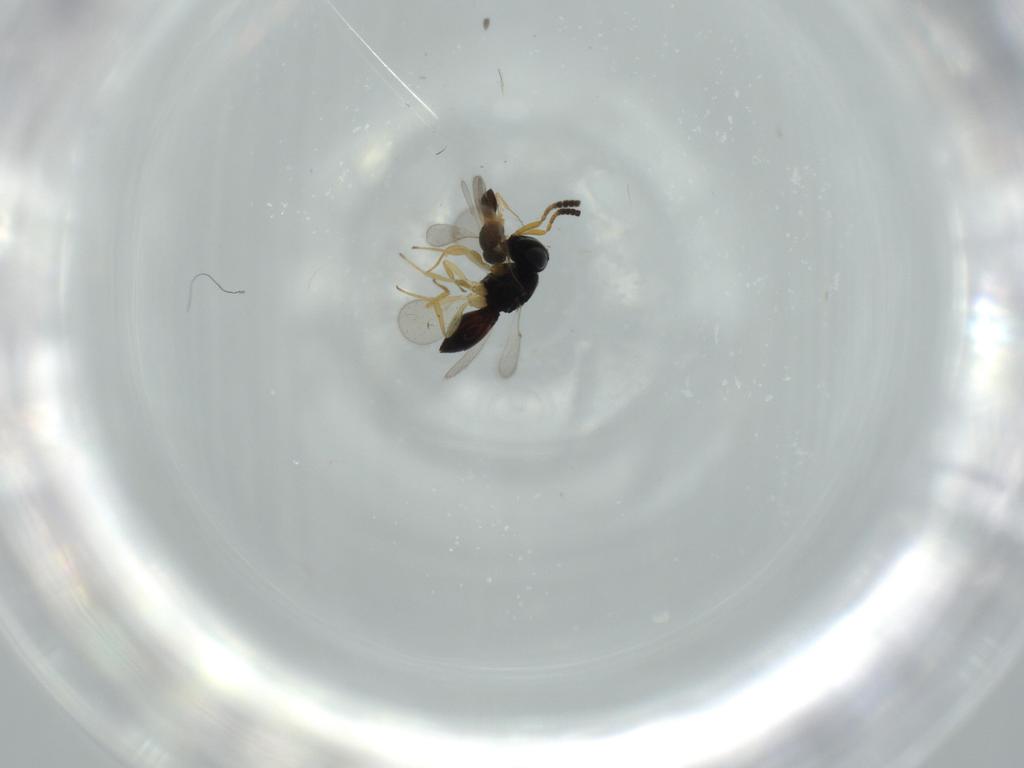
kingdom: Animalia
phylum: Arthropoda
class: Insecta
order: Hymenoptera
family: Scelionidae
